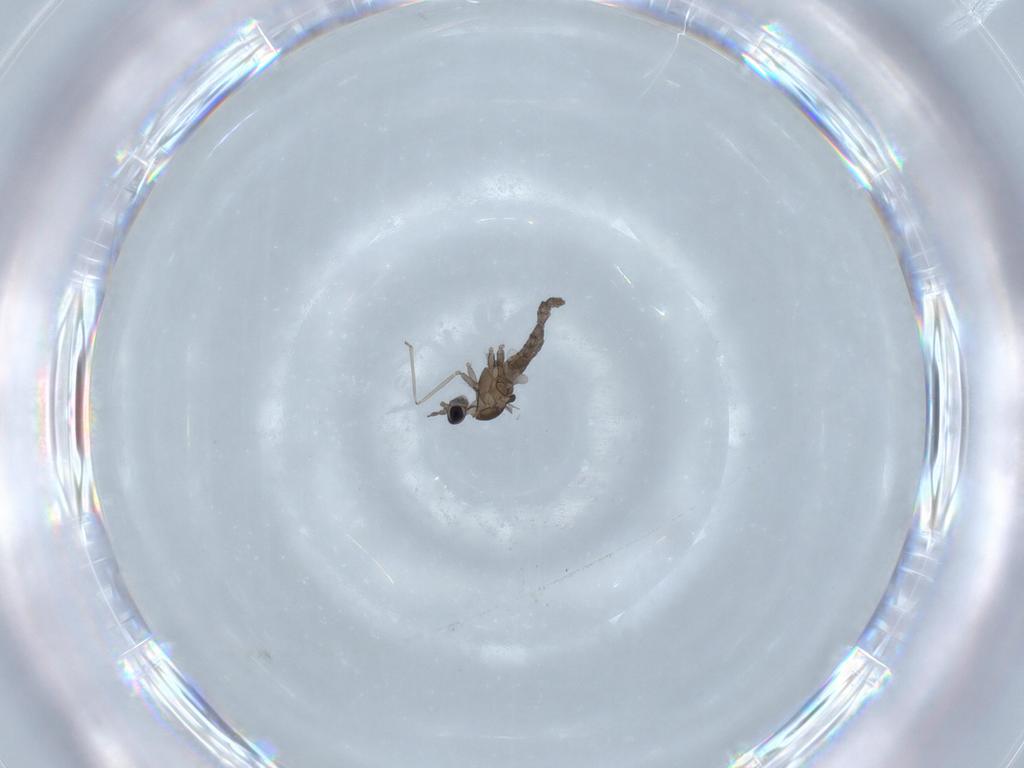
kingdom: Animalia
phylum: Arthropoda
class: Insecta
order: Diptera
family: Cecidomyiidae
